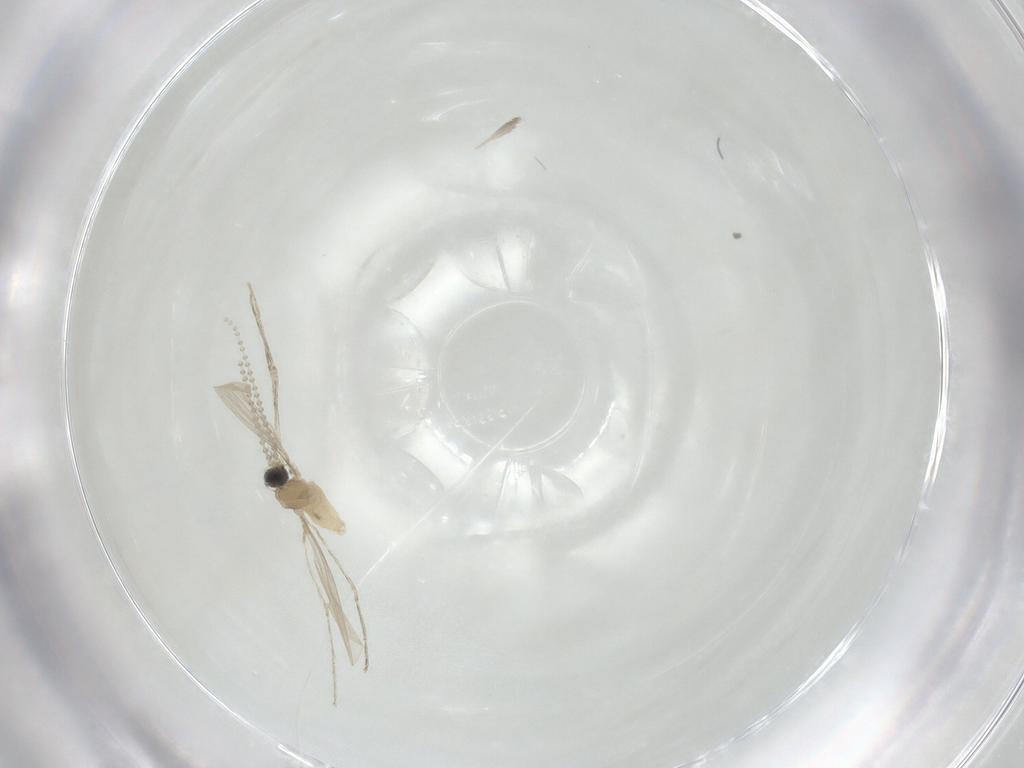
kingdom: Animalia
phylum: Arthropoda
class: Insecta
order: Diptera
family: Cecidomyiidae
